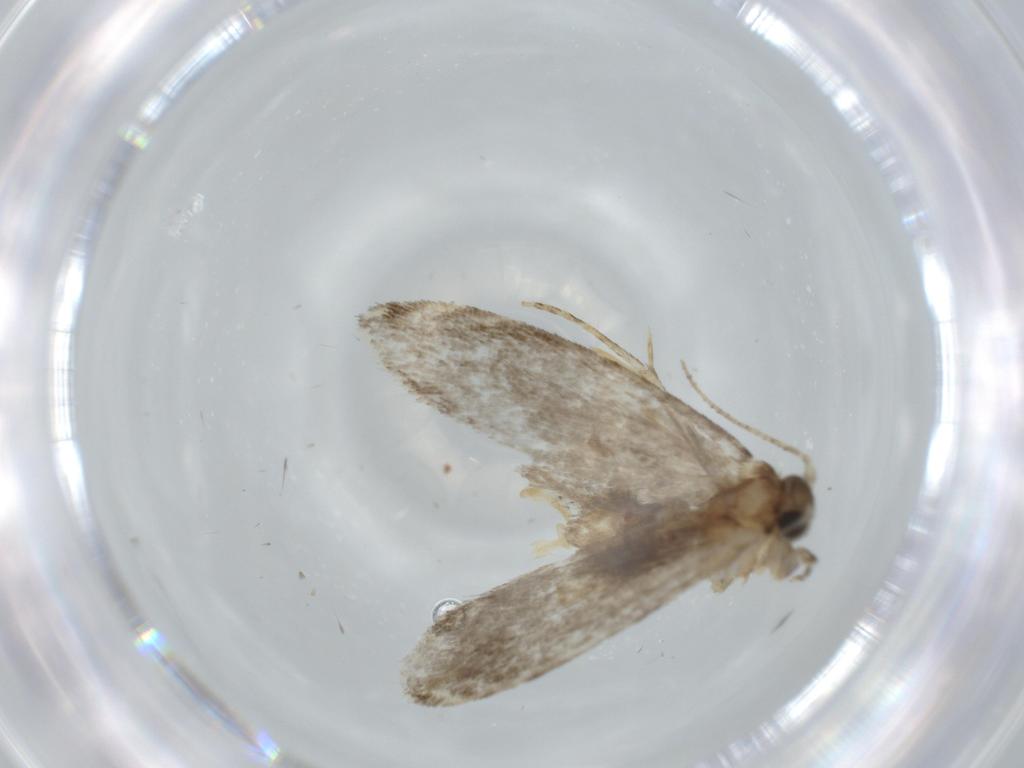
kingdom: Animalia
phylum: Arthropoda
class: Insecta
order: Lepidoptera
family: Tineidae
